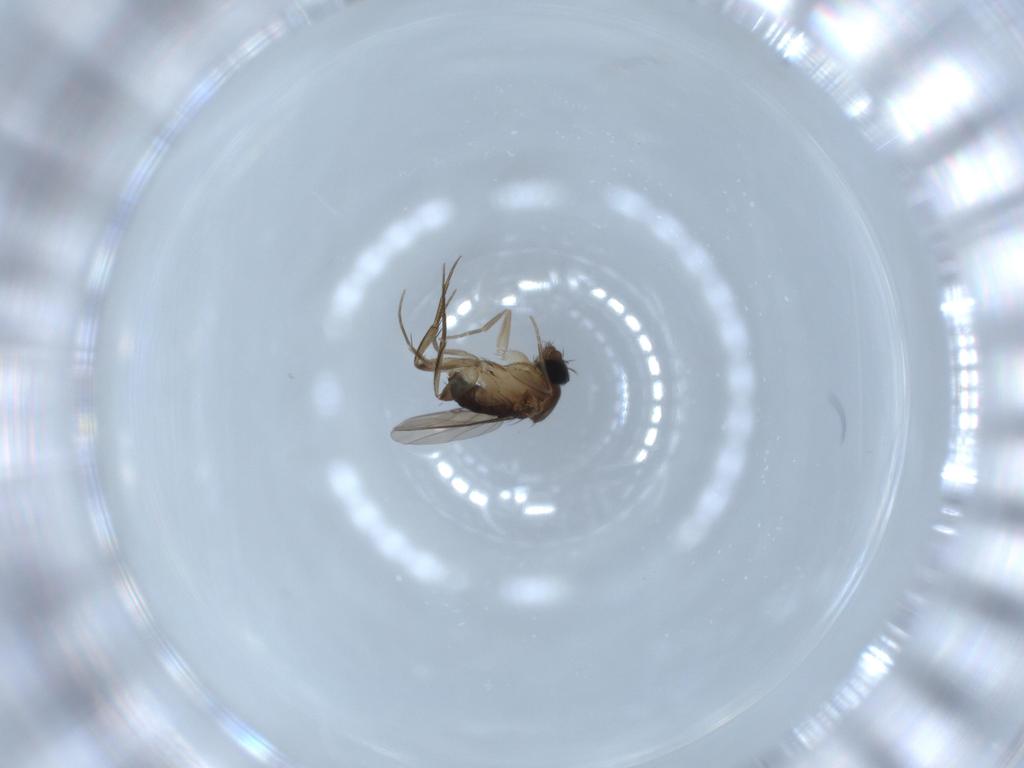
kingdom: Animalia
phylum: Arthropoda
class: Insecta
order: Diptera
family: Phoridae
